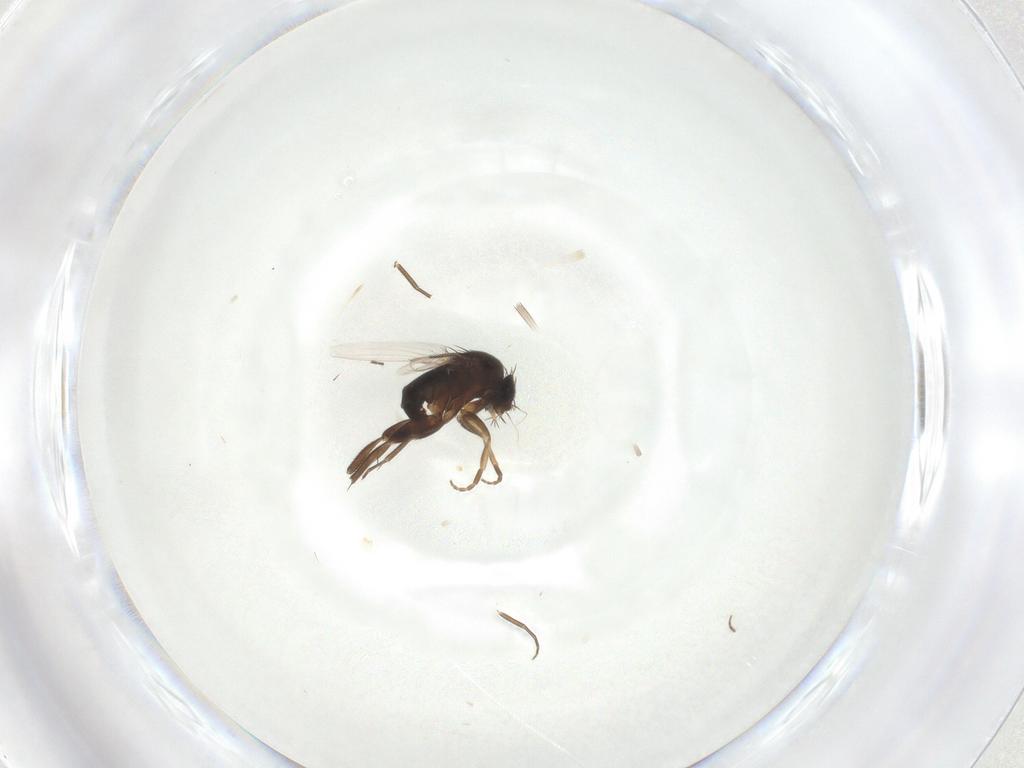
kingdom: Animalia
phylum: Arthropoda
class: Insecta
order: Diptera
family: Phoridae
